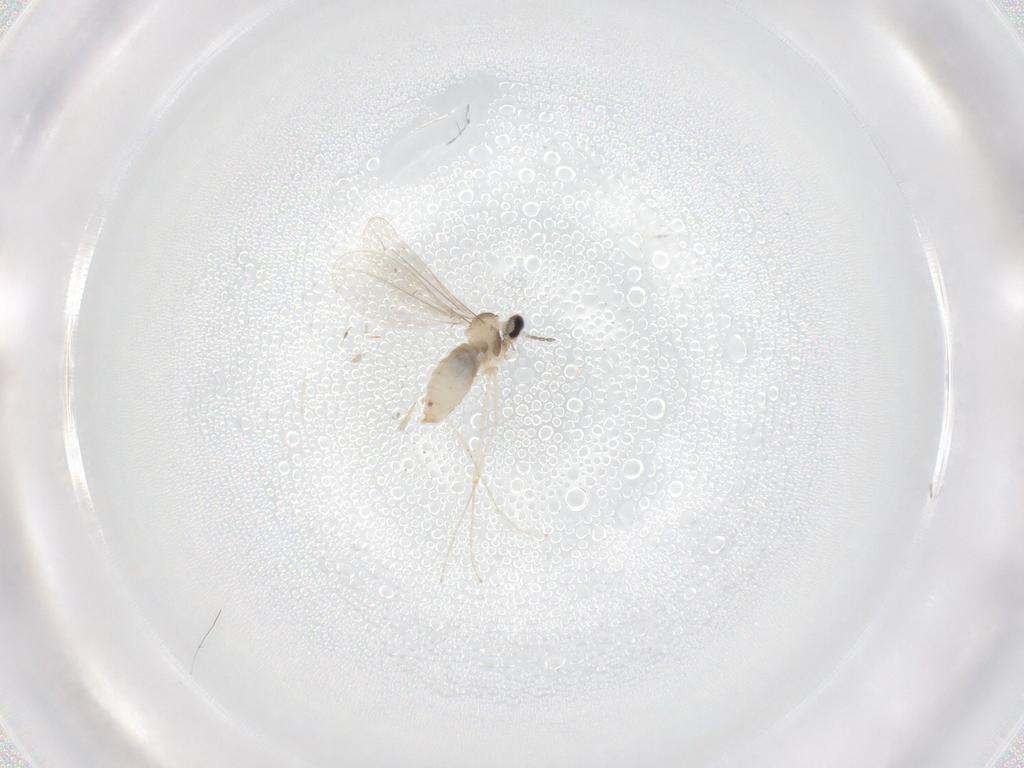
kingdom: Animalia
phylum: Arthropoda
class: Insecta
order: Diptera
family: Cecidomyiidae
